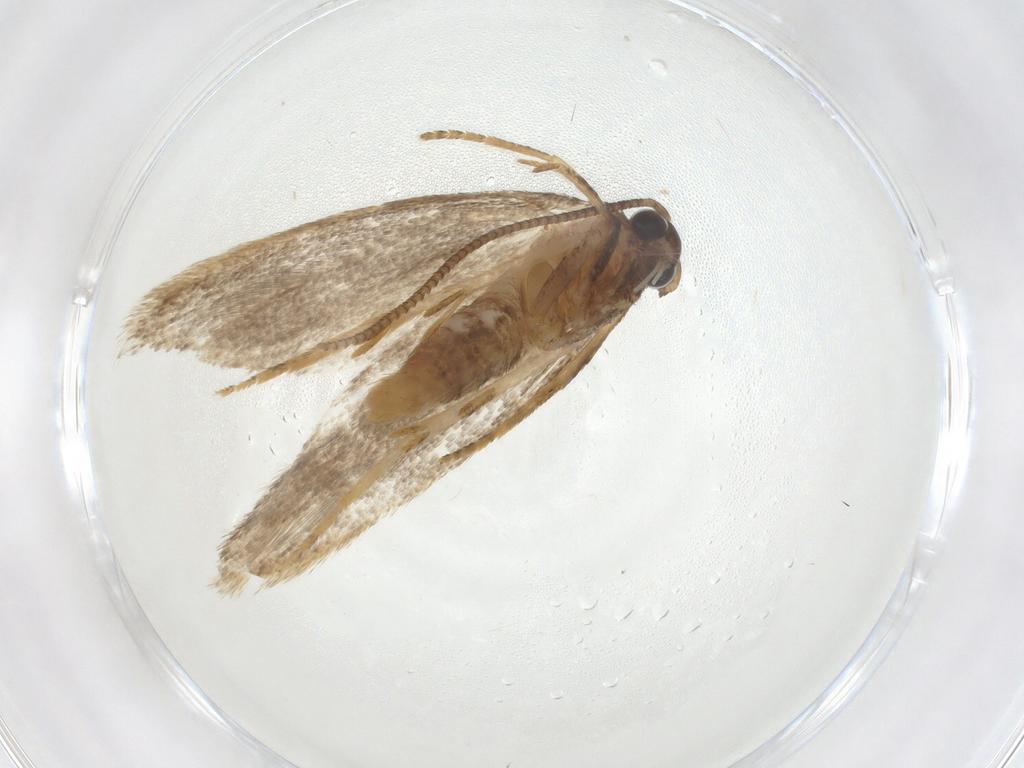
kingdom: Animalia
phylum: Arthropoda
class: Insecta
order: Lepidoptera
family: Autostichidae
